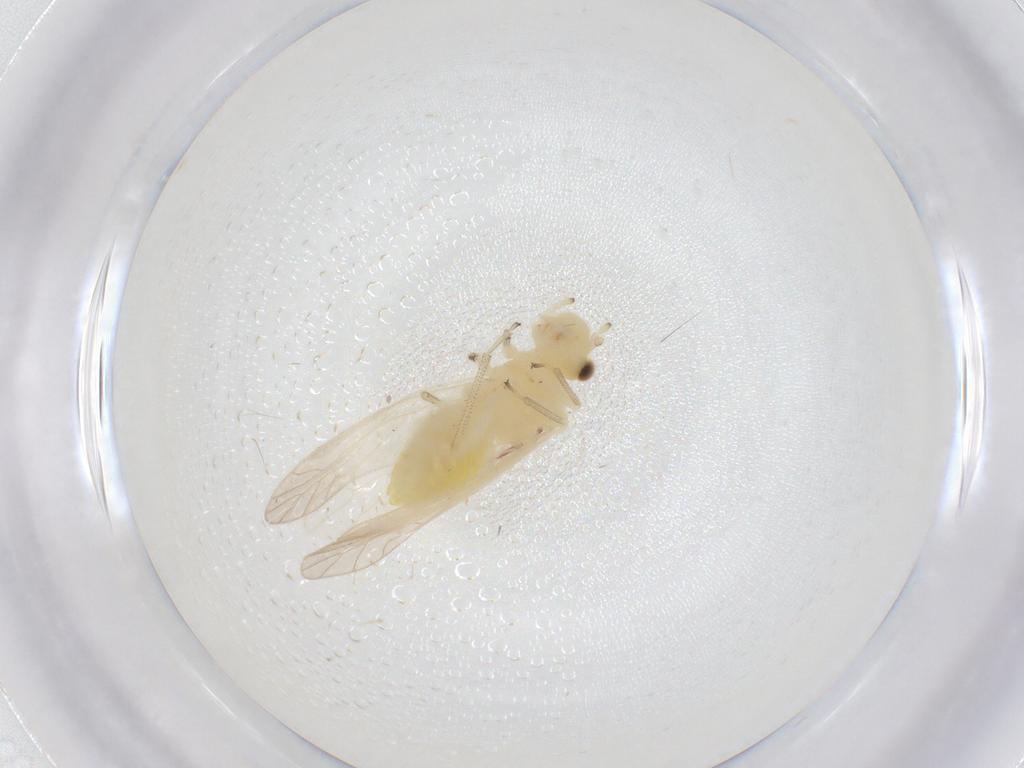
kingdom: Animalia
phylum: Arthropoda
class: Insecta
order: Psocodea
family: Caeciliusidae
